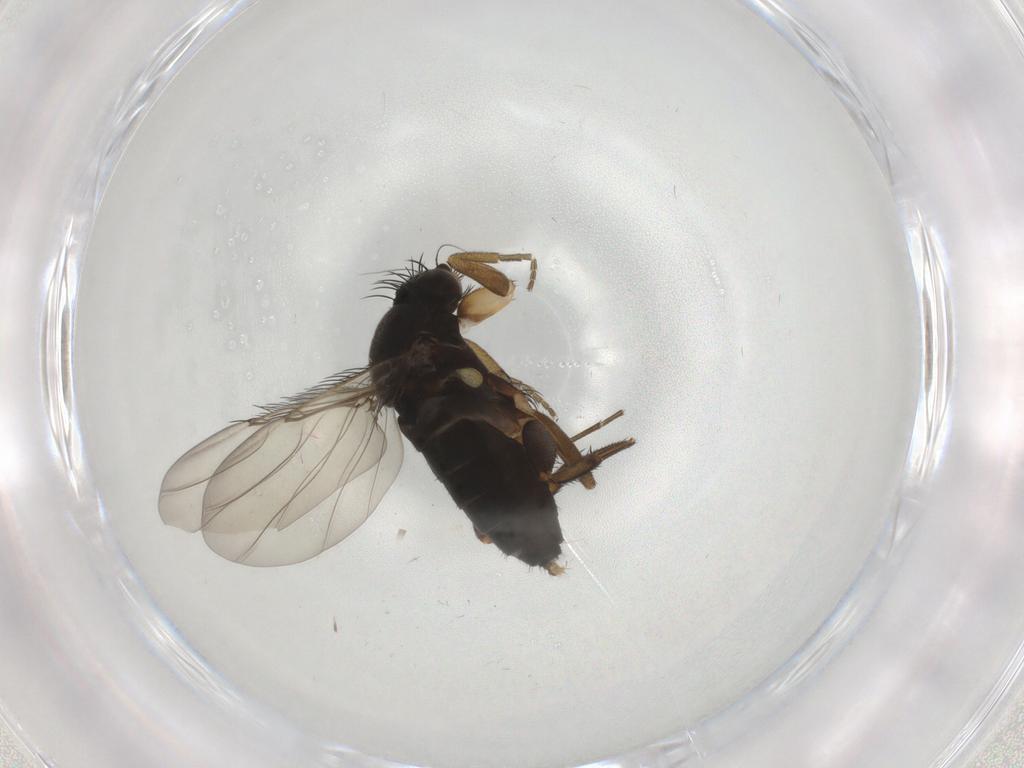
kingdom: Animalia
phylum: Arthropoda
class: Insecta
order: Diptera
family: Phoridae
